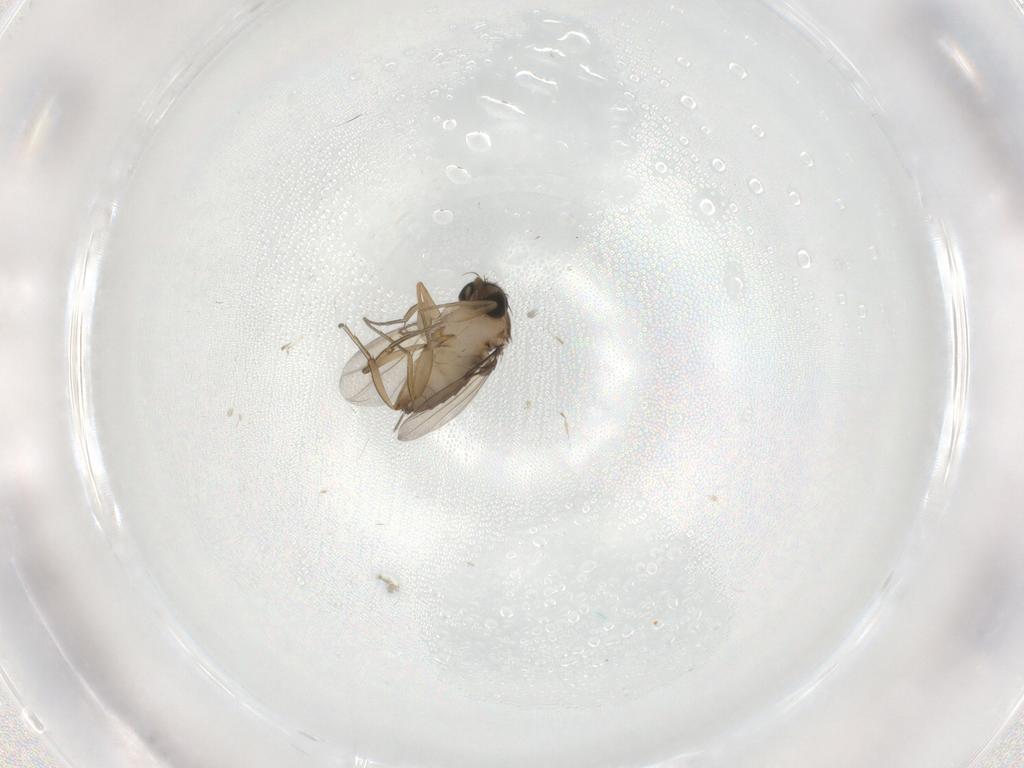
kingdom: Animalia
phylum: Arthropoda
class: Insecta
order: Diptera
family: Phoridae
